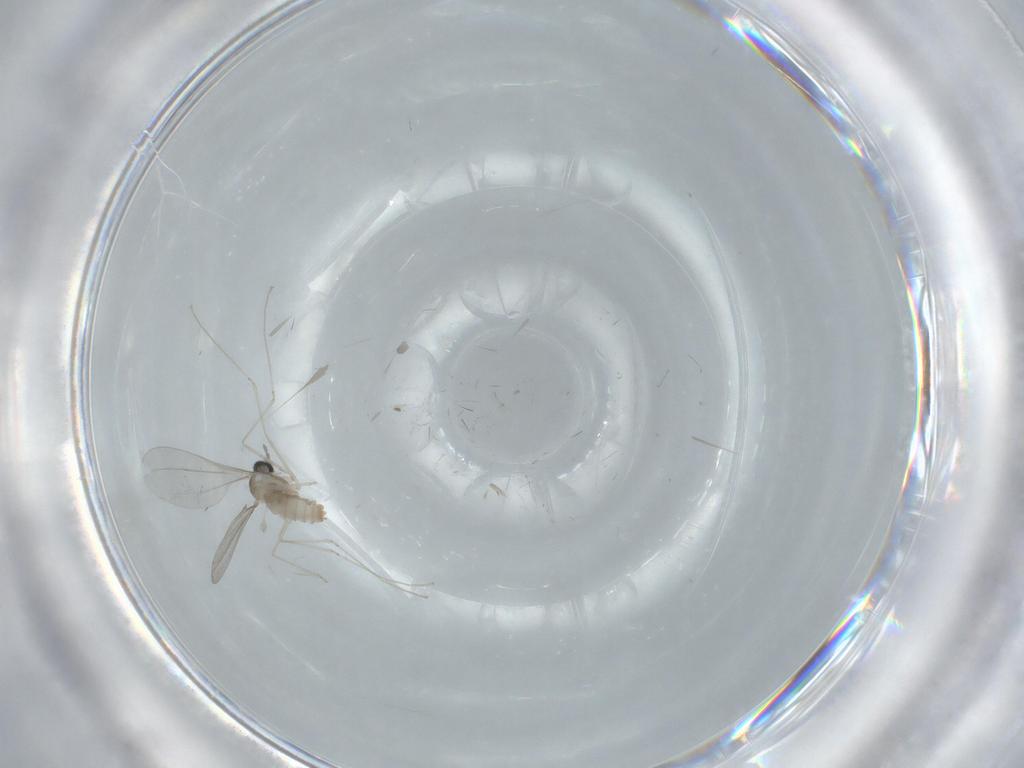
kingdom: Animalia
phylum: Arthropoda
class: Insecta
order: Diptera
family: Cecidomyiidae
